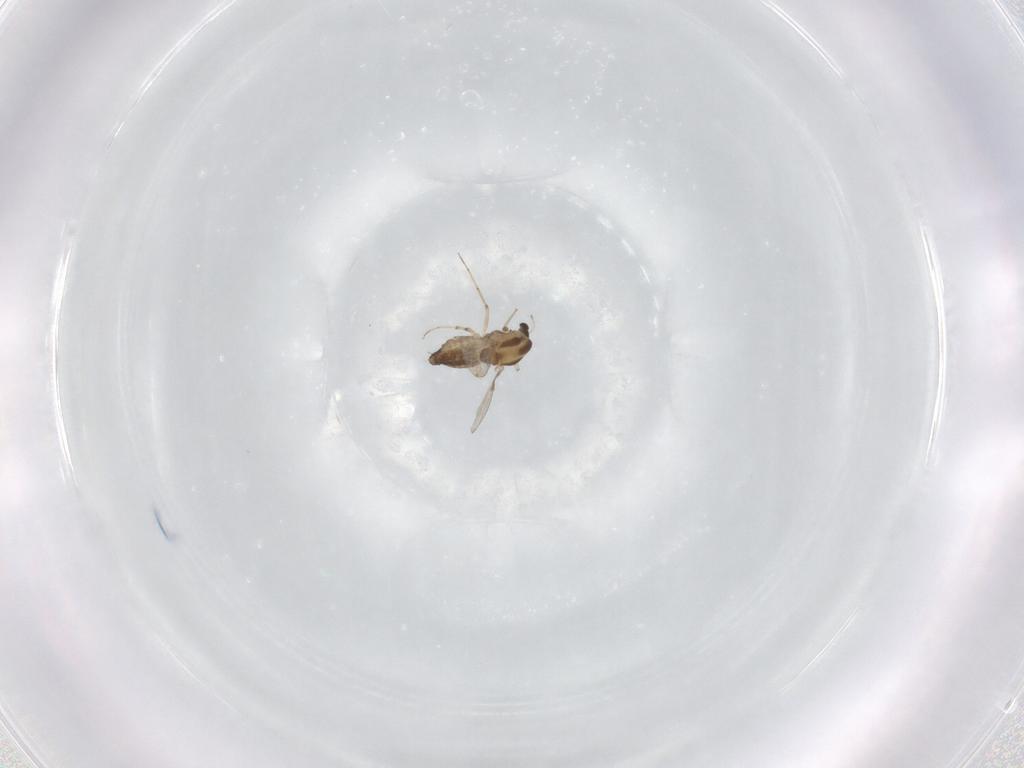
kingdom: Animalia
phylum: Arthropoda
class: Insecta
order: Diptera
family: Chironomidae
